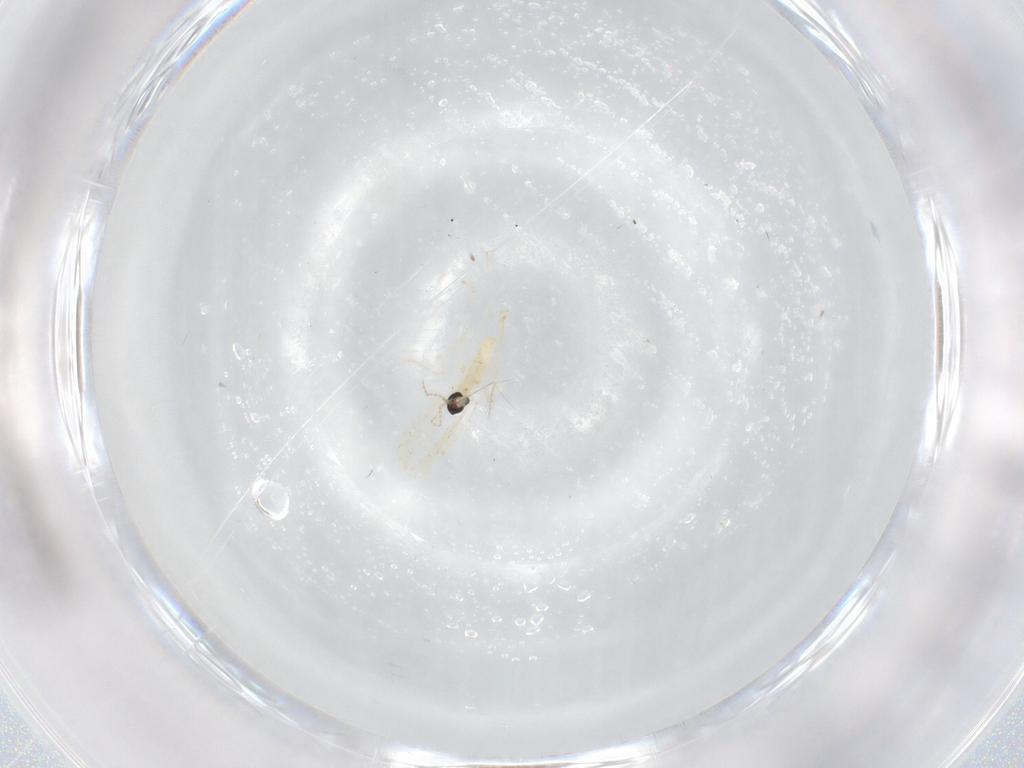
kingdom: Animalia
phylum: Arthropoda
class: Insecta
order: Diptera
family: Cecidomyiidae
